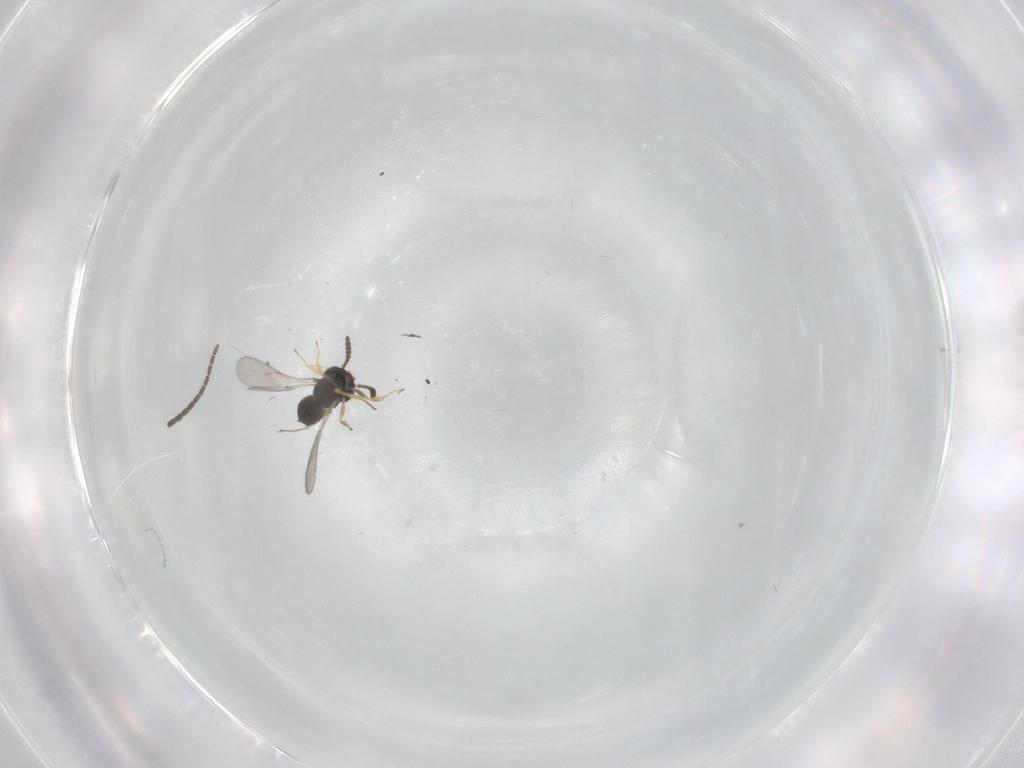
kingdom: Animalia
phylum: Arthropoda
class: Insecta
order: Hymenoptera
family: Scelionidae
